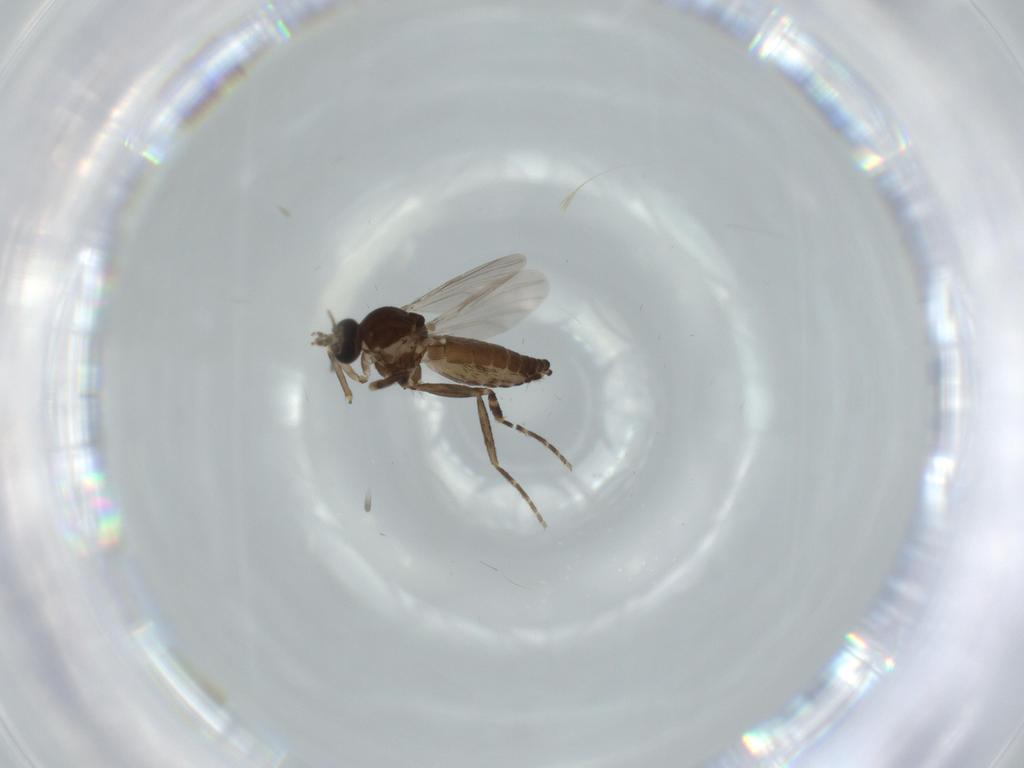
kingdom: Animalia
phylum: Arthropoda
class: Insecta
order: Diptera
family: Ceratopogonidae
